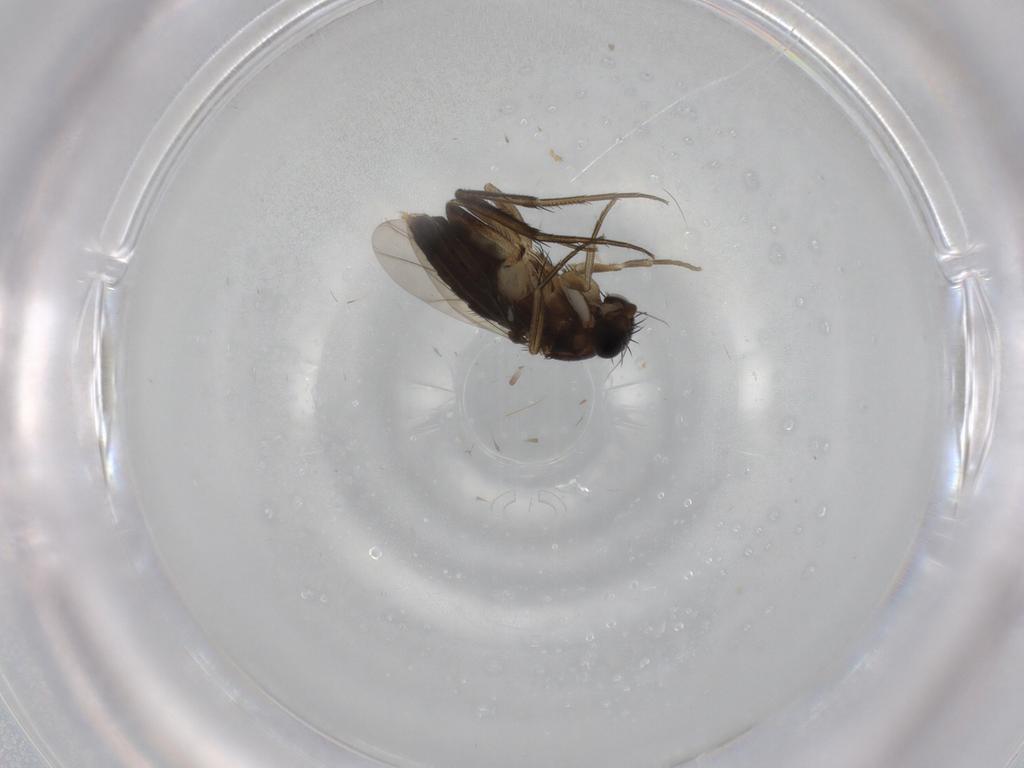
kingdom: Animalia
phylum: Arthropoda
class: Insecta
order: Diptera
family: Phoridae
